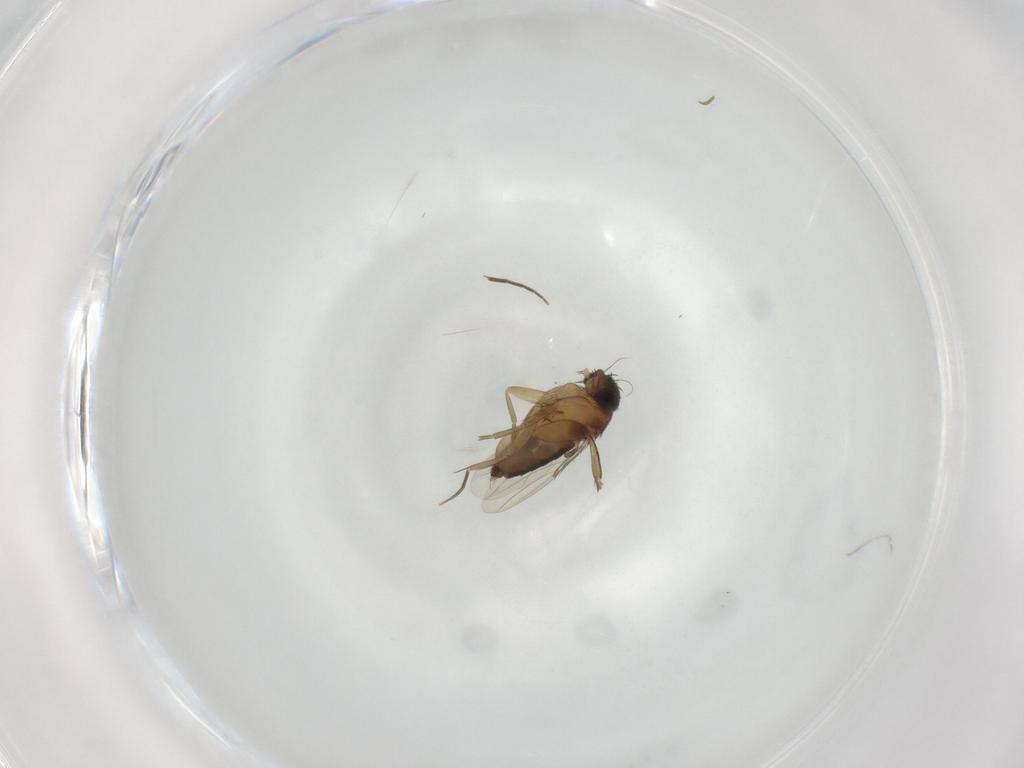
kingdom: Animalia
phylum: Arthropoda
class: Insecta
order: Diptera
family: Phoridae
